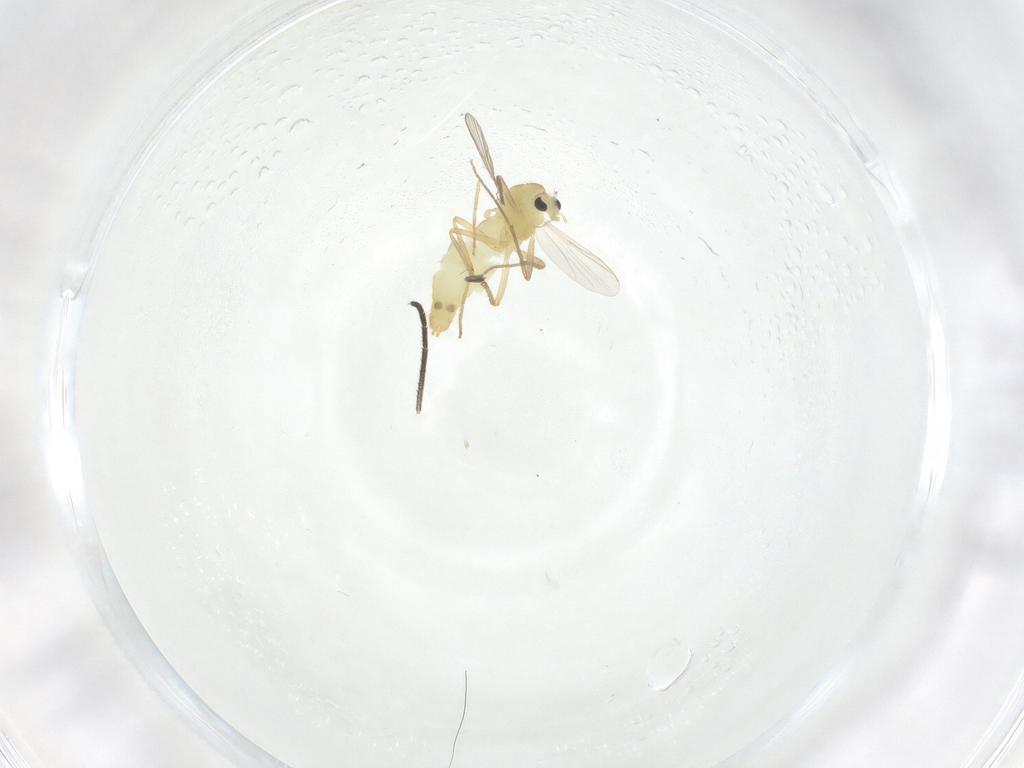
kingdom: Animalia
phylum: Arthropoda
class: Insecta
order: Diptera
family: Chironomidae
